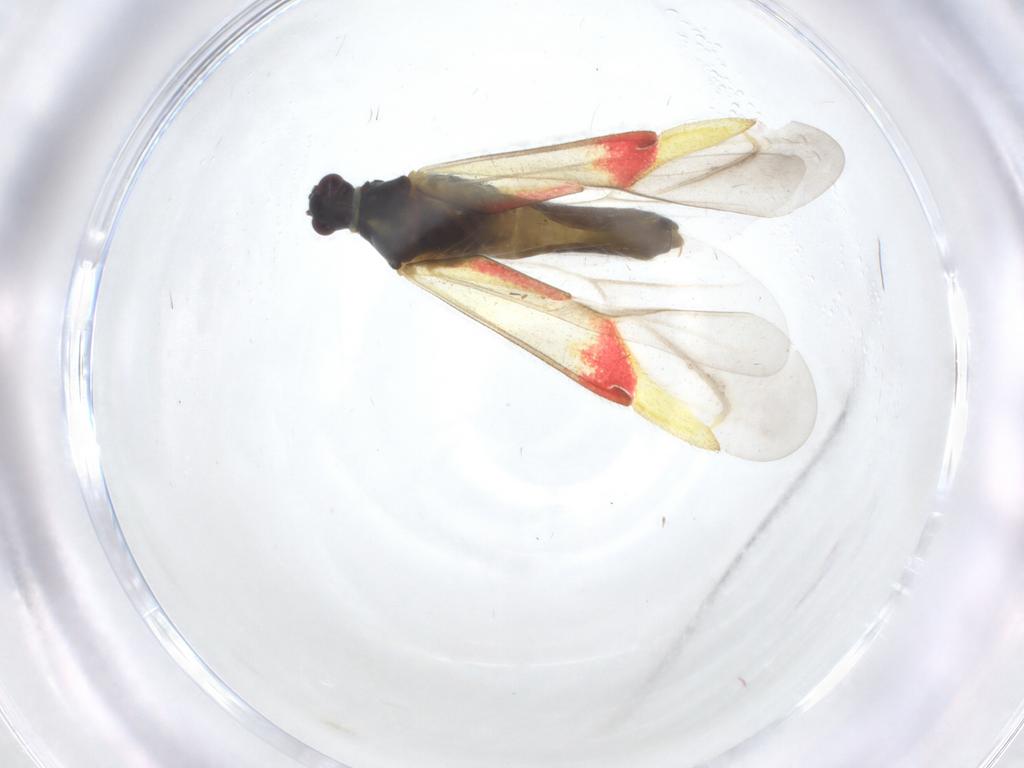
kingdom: Animalia
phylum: Arthropoda
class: Insecta
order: Hemiptera
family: Miridae
